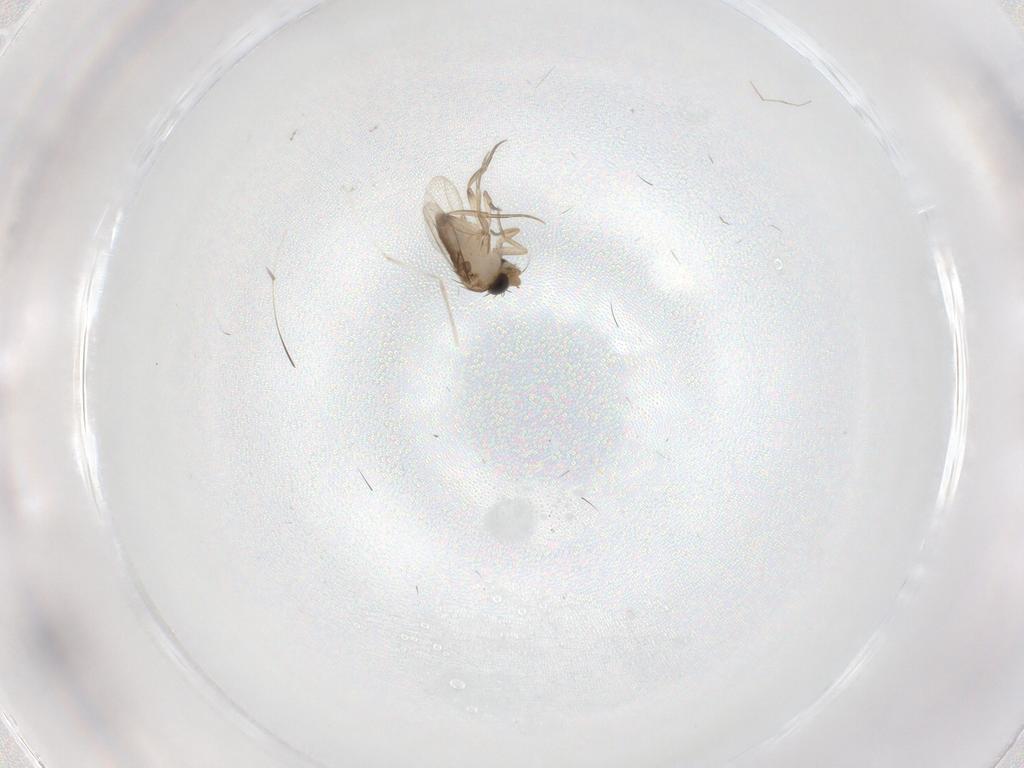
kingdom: Animalia
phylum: Arthropoda
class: Insecta
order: Diptera
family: Phoridae
